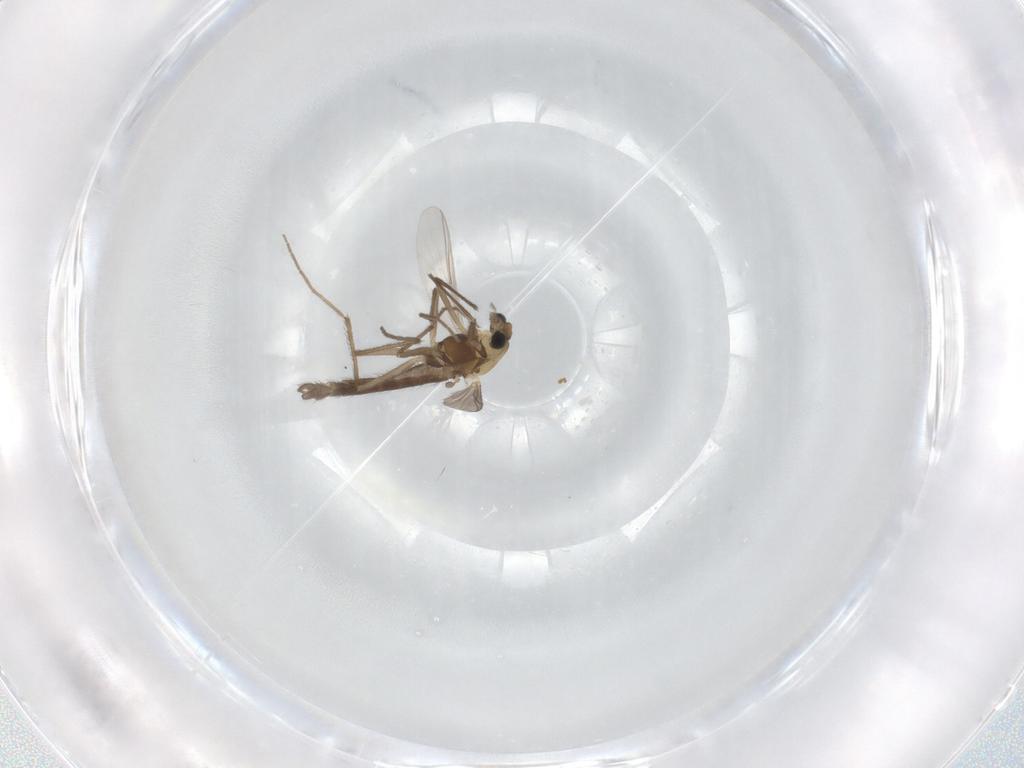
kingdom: Animalia
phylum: Arthropoda
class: Insecta
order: Diptera
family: Chironomidae
